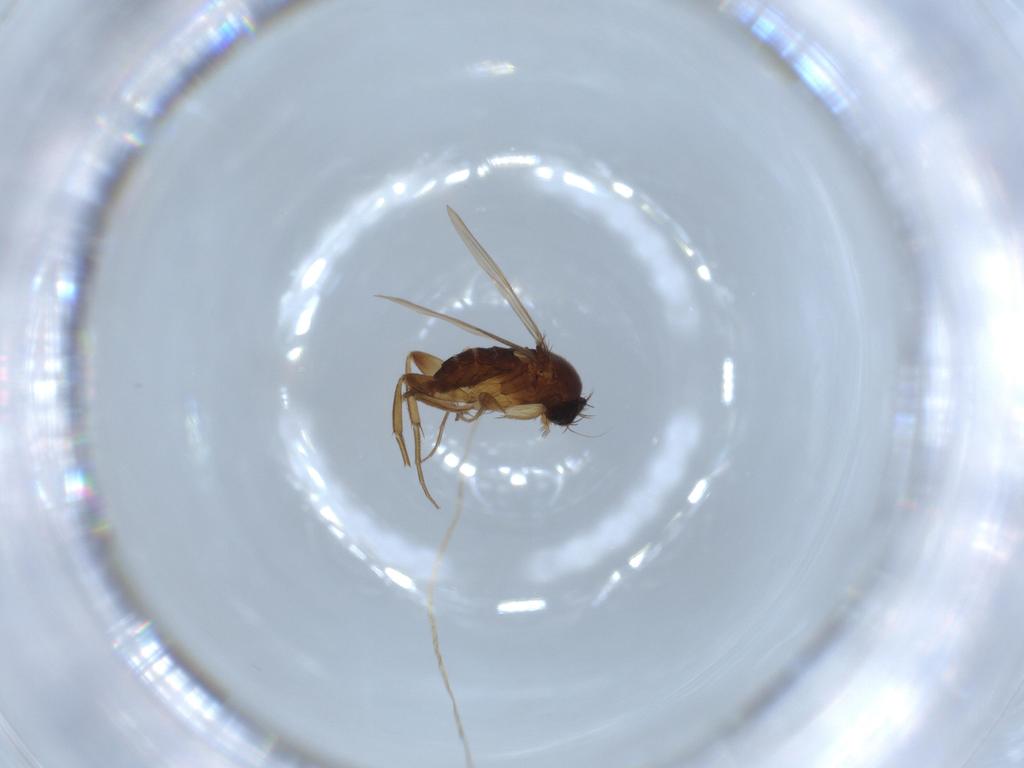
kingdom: Animalia
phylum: Arthropoda
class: Insecta
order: Diptera
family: Phoridae
